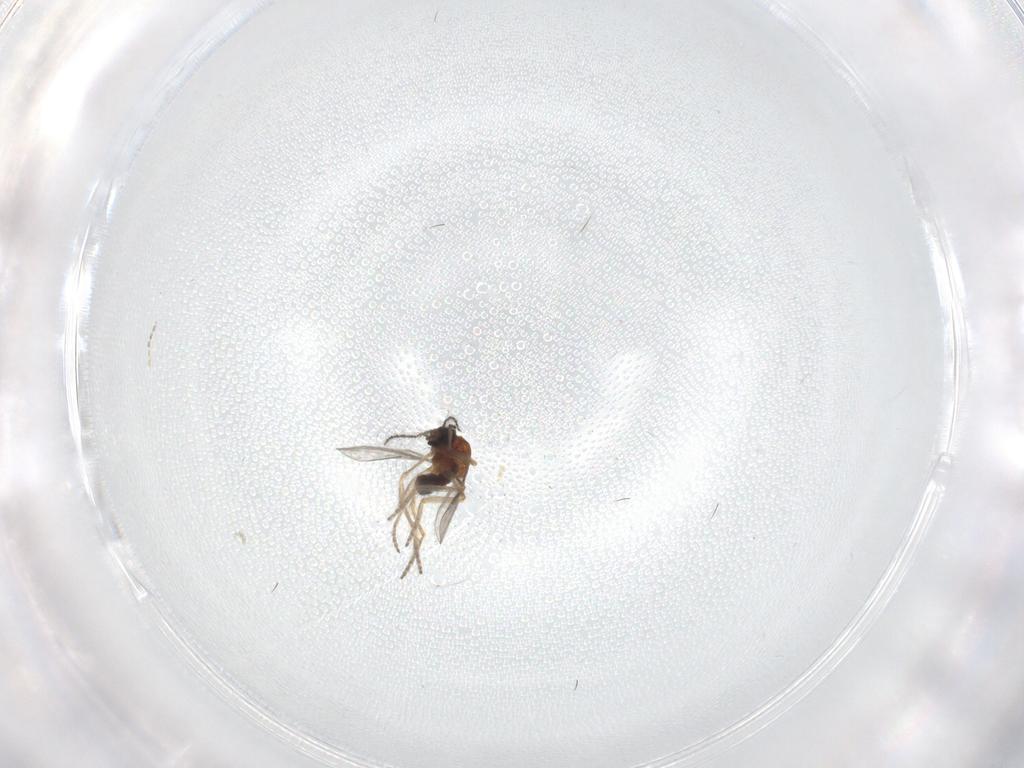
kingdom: Animalia
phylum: Arthropoda
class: Insecta
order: Diptera
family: Ceratopogonidae
